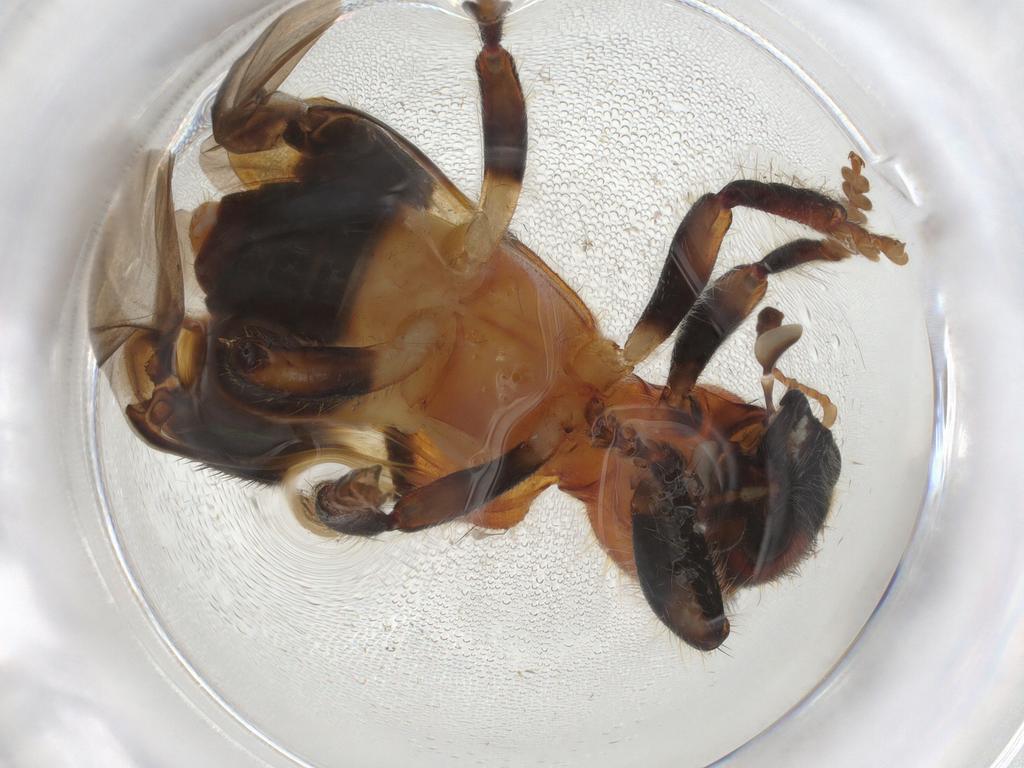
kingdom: Animalia
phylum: Arthropoda
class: Insecta
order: Coleoptera
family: Brentidae
